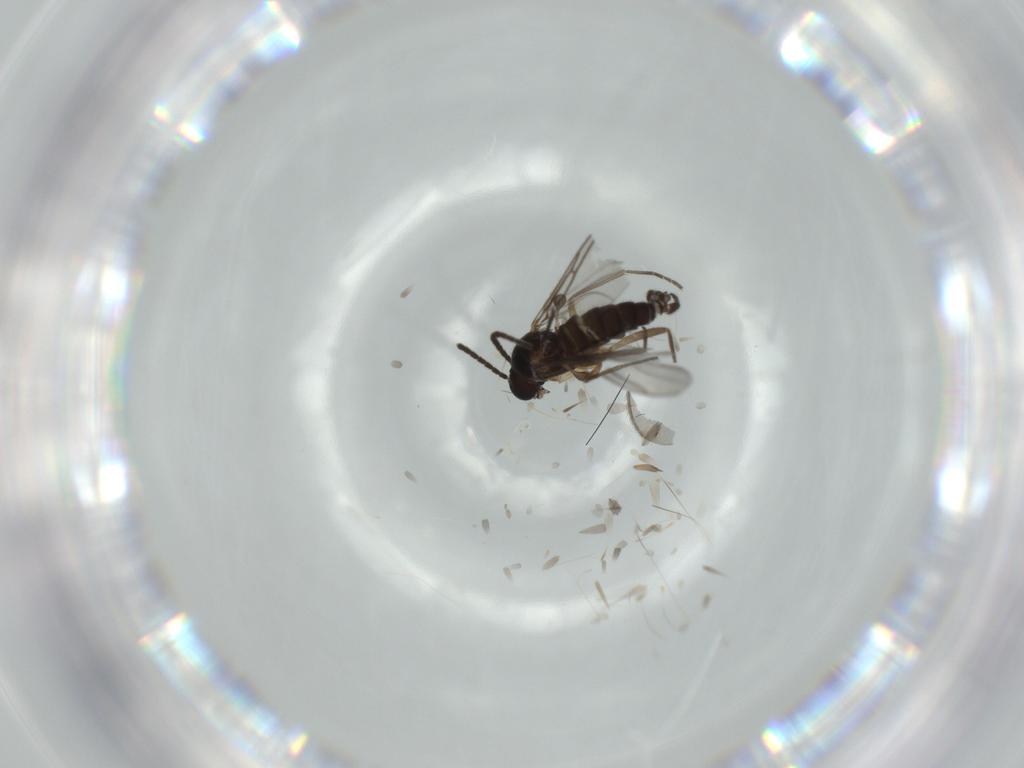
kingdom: Animalia
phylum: Arthropoda
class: Insecta
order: Diptera
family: Sciaridae
